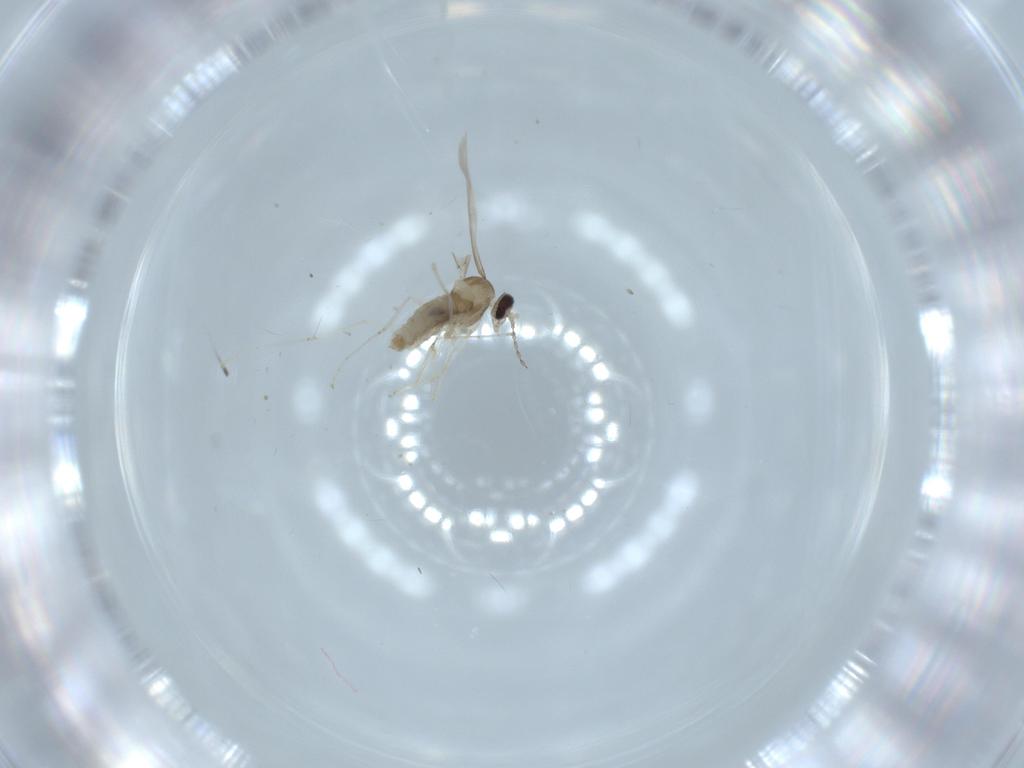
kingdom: Animalia
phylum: Arthropoda
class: Insecta
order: Diptera
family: Cecidomyiidae
